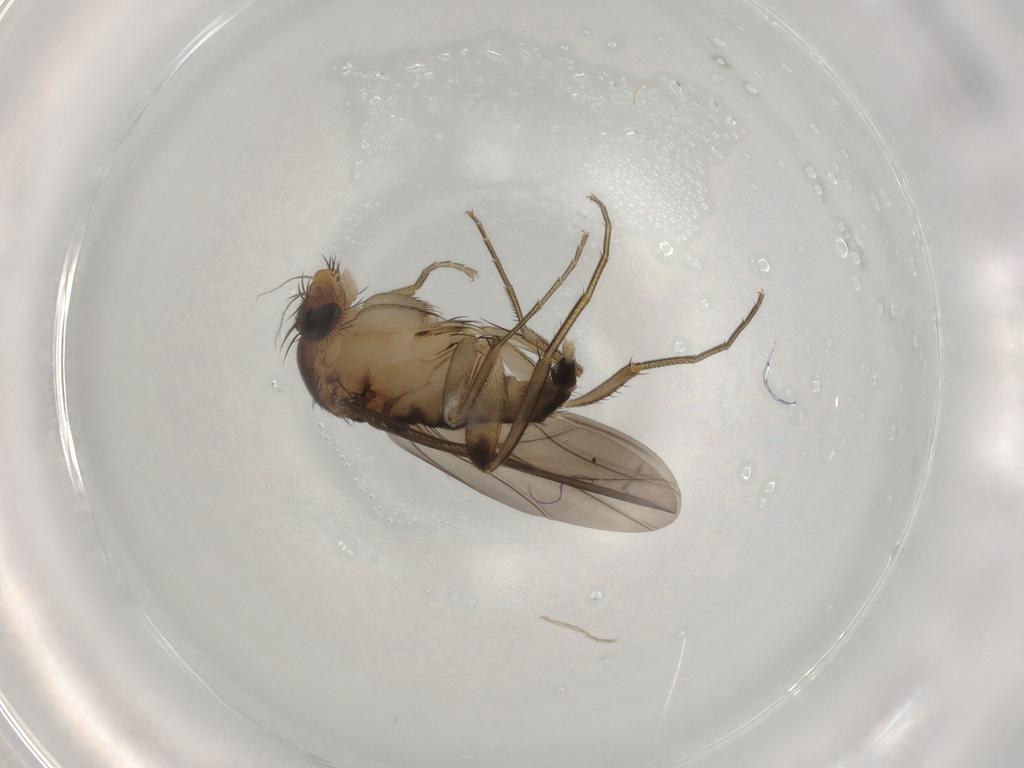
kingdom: Animalia
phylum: Arthropoda
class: Insecta
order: Diptera
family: Phoridae
